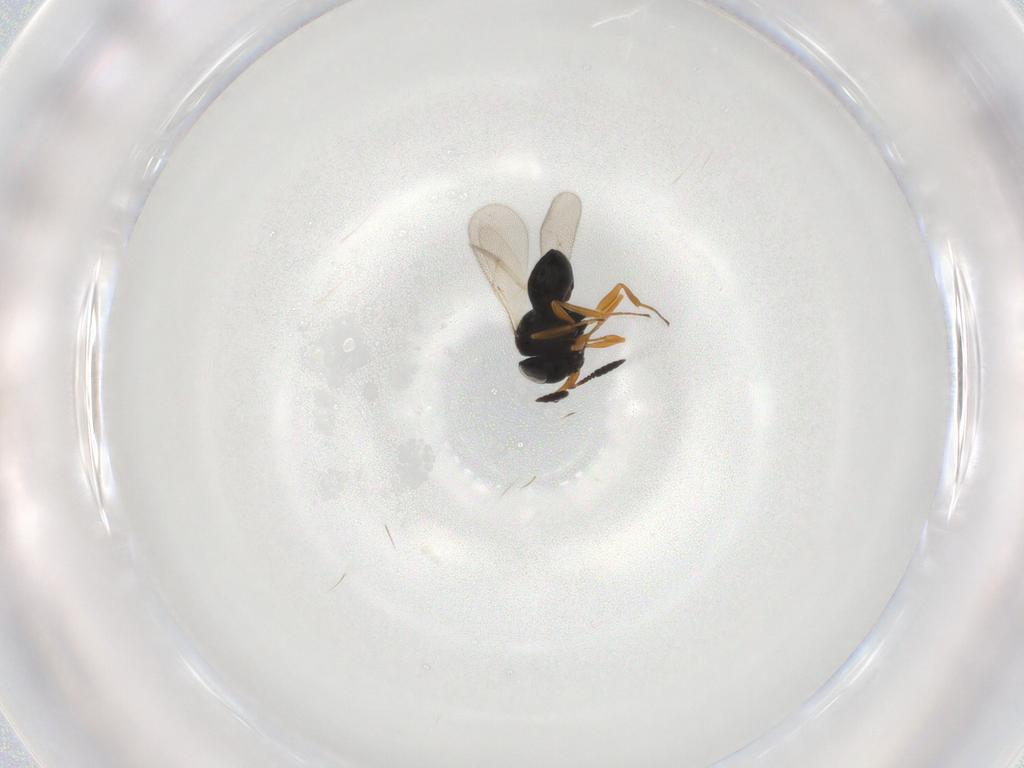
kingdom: Animalia
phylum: Arthropoda
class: Insecta
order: Hymenoptera
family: Scelionidae
